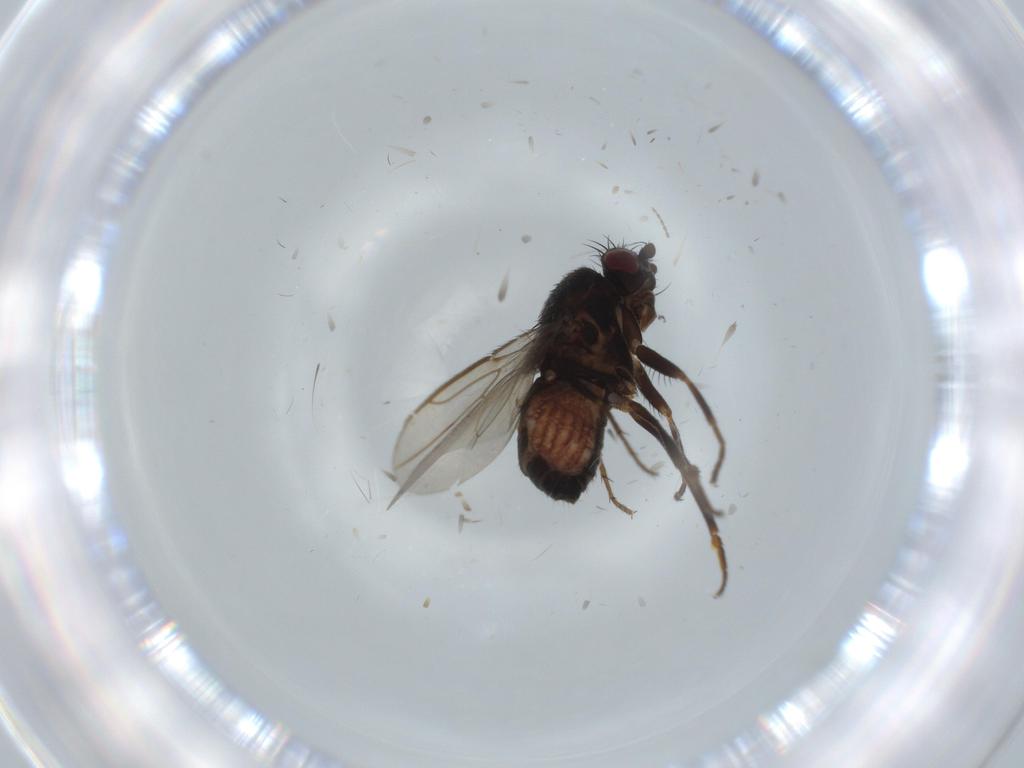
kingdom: Animalia
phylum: Arthropoda
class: Insecta
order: Diptera
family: Sphaeroceridae
